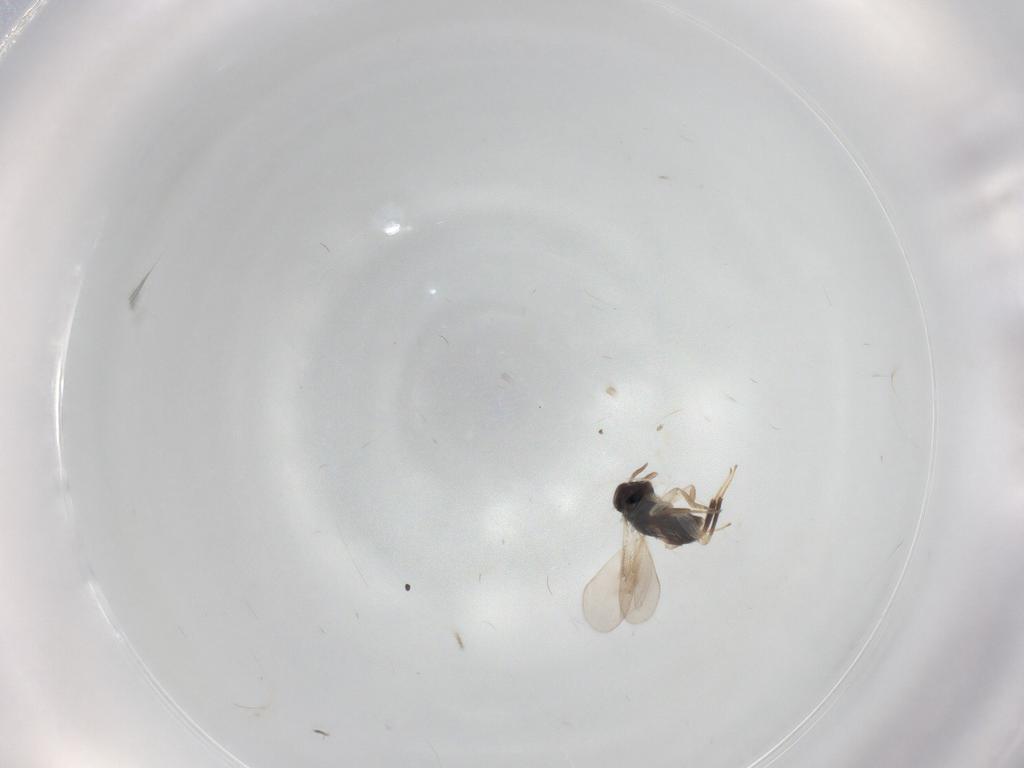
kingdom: Animalia
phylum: Arthropoda
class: Insecta
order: Hymenoptera
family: Aphelinidae
